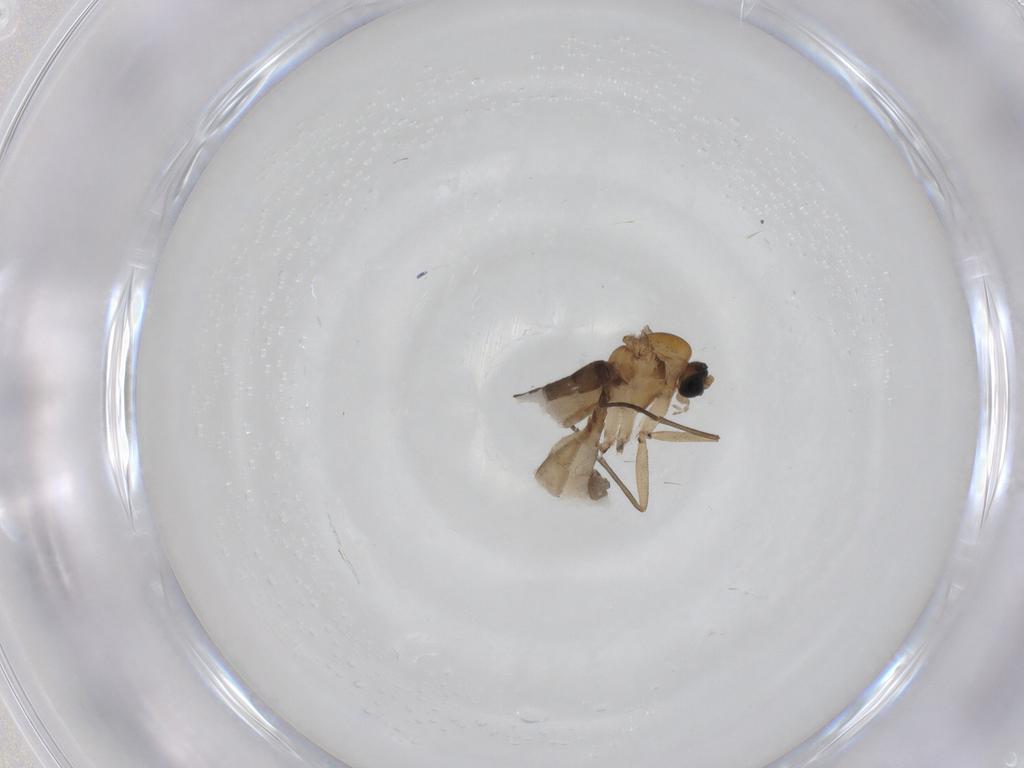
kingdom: Animalia
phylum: Arthropoda
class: Insecta
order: Diptera
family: Sciaridae
